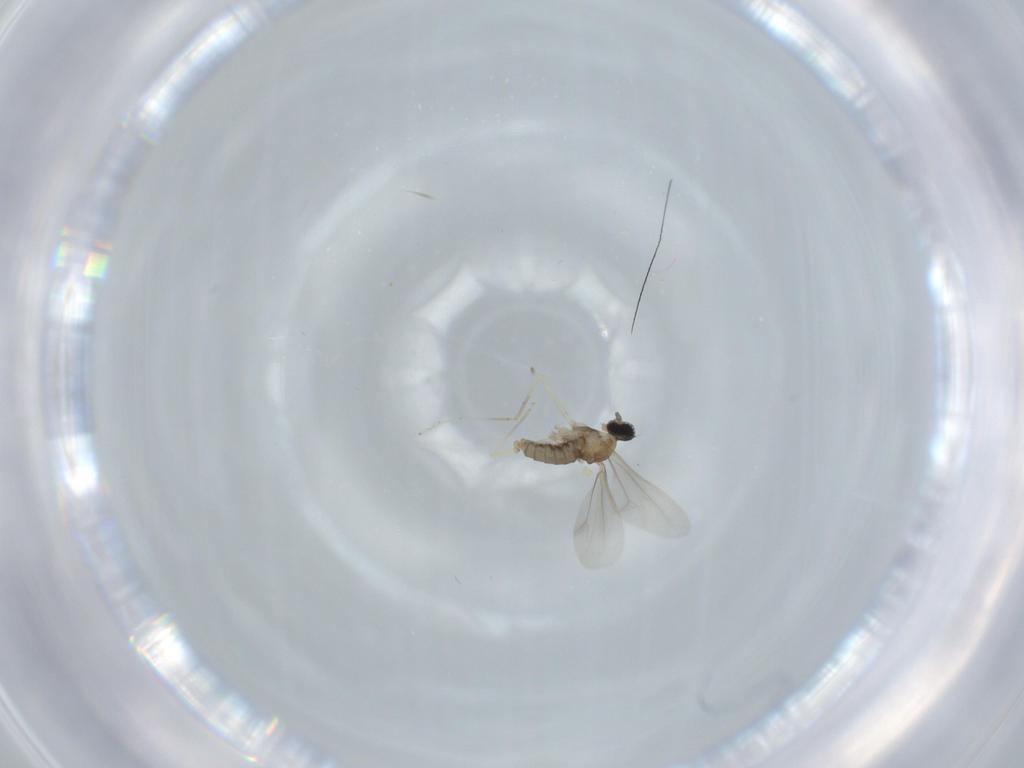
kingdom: Animalia
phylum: Arthropoda
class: Insecta
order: Diptera
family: Cecidomyiidae
